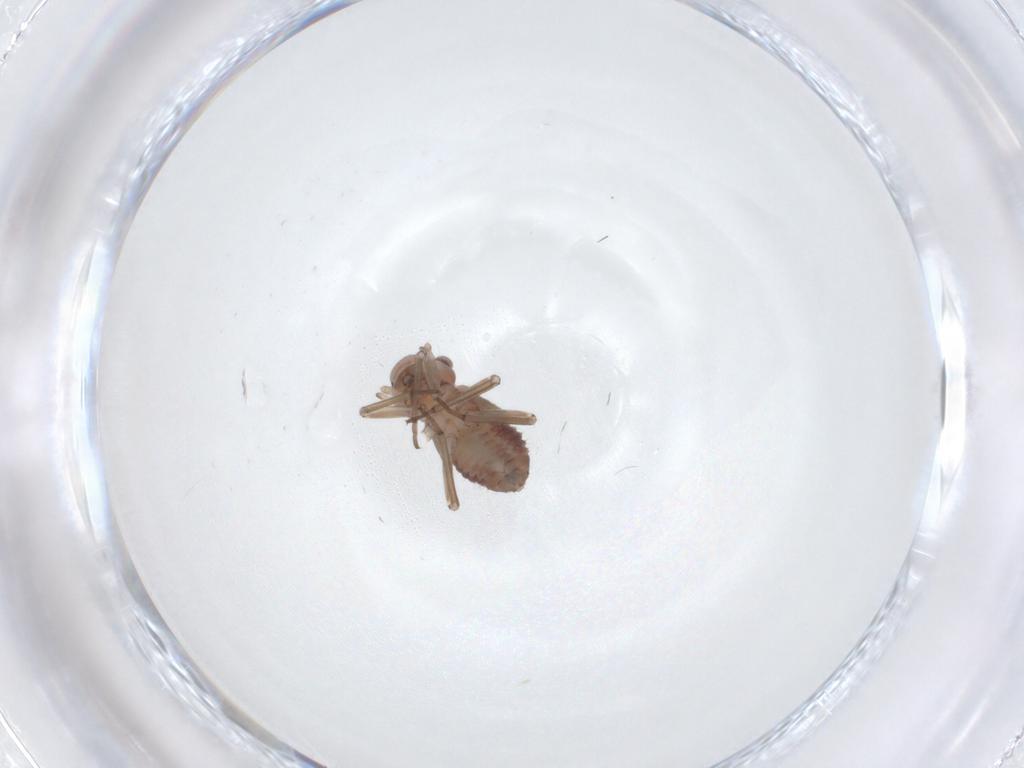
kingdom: Animalia
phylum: Arthropoda
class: Insecta
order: Psocodea
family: Psocidae
